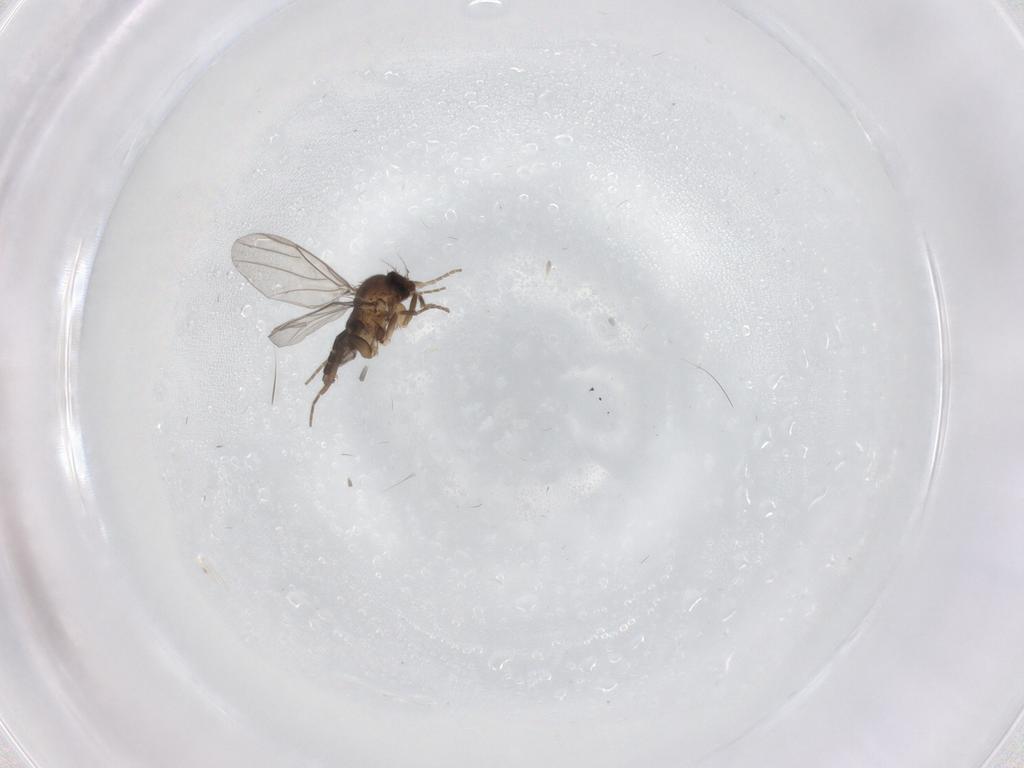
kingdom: Animalia
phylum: Arthropoda
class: Insecta
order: Diptera
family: Phoridae
